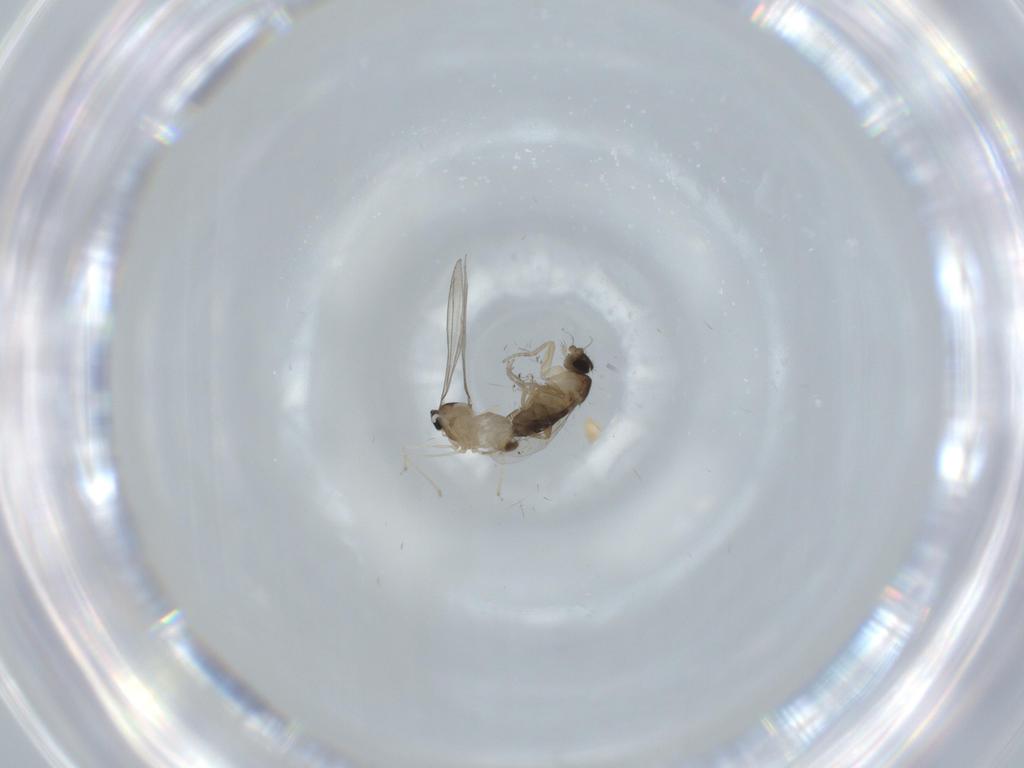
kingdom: Animalia
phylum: Arthropoda
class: Insecta
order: Diptera
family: Phoridae
